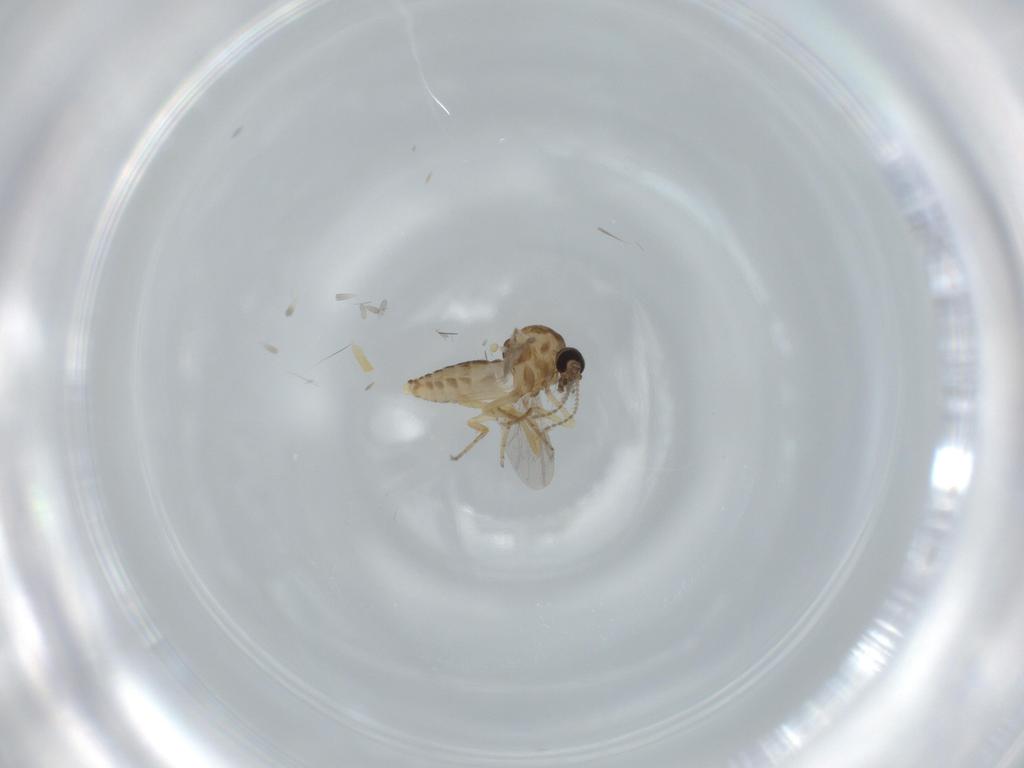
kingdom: Animalia
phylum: Arthropoda
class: Insecta
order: Diptera
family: Ceratopogonidae
